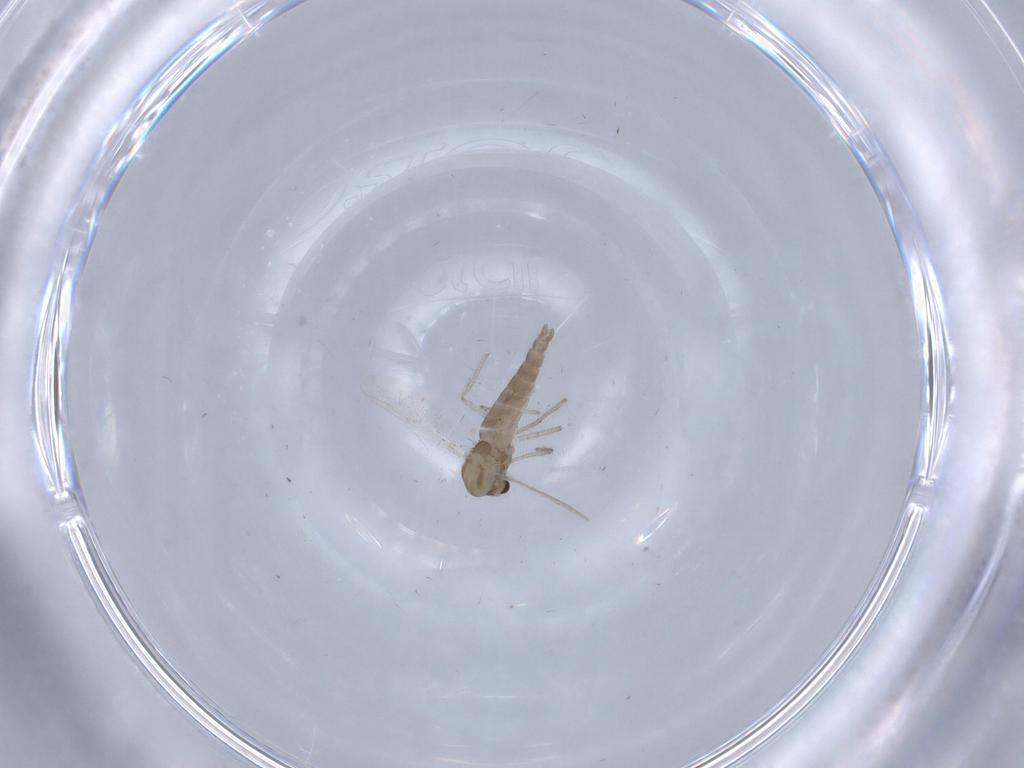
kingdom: Animalia
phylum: Arthropoda
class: Insecta
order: Diptera
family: Chironomidae
